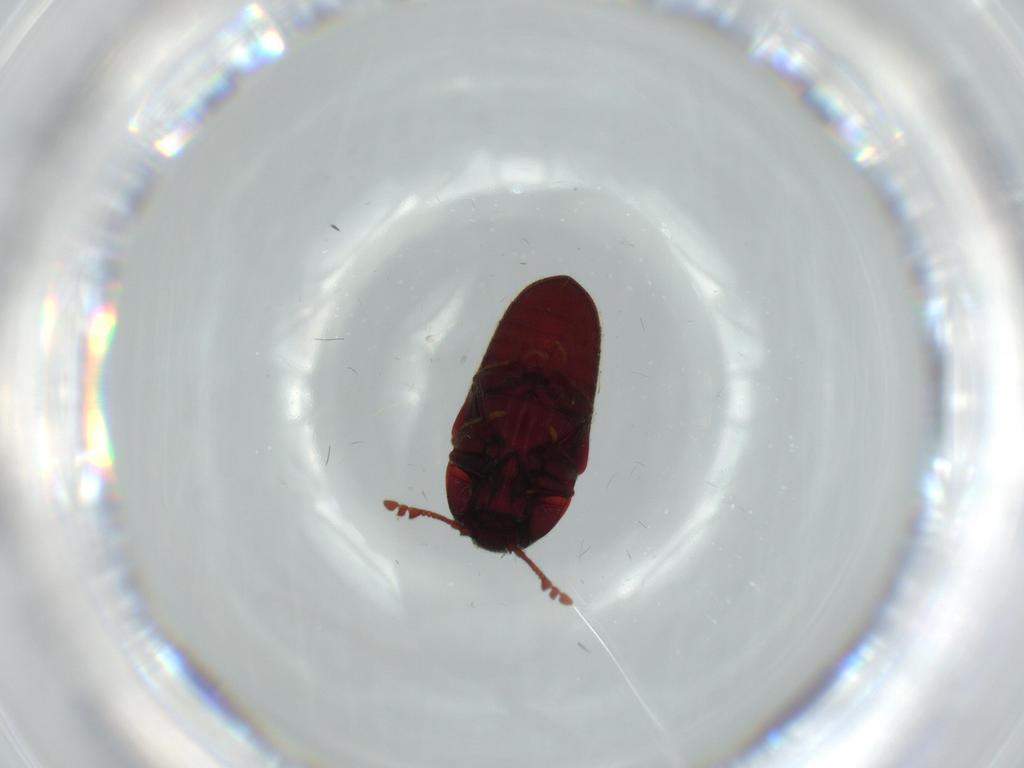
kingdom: Animalia
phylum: Arthropoda
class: Insecta
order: Coleoptera
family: Throscidae
